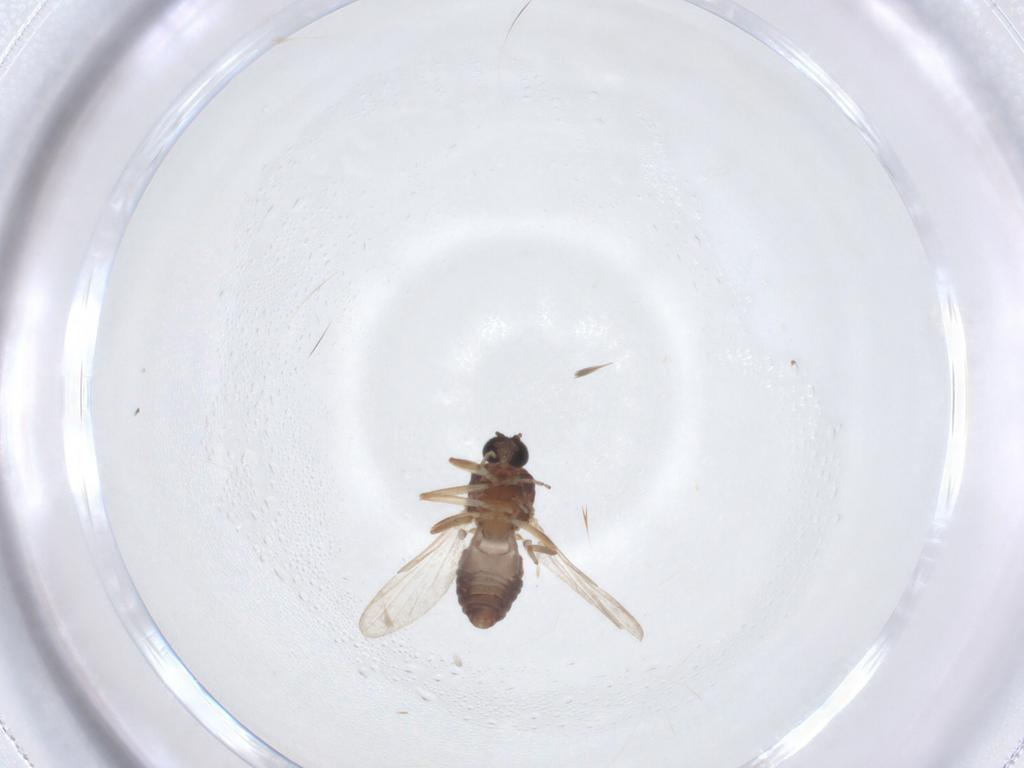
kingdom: Animalia
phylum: Arthropoda
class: Insecta
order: Diptera
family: Ceratopogonidae
